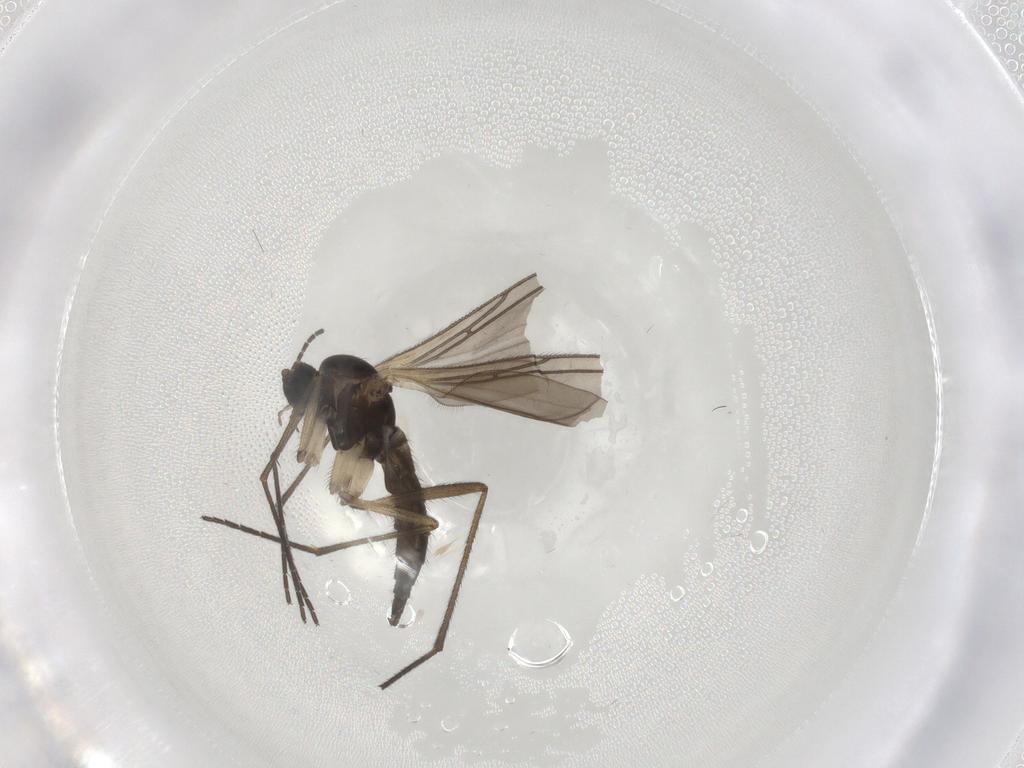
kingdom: Animalia
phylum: Arthropoda
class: Insecta
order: Diptera
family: Sciaridae
